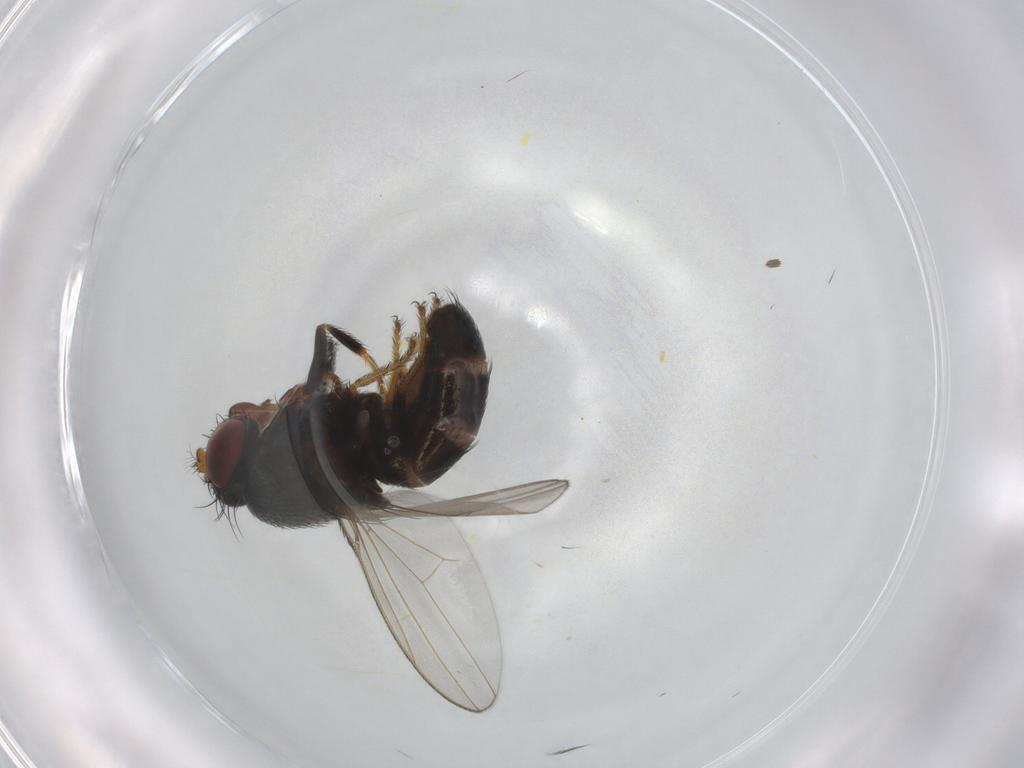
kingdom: Animalia
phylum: Arthropoda
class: Insecta
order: Diptera
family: Ephydridae
